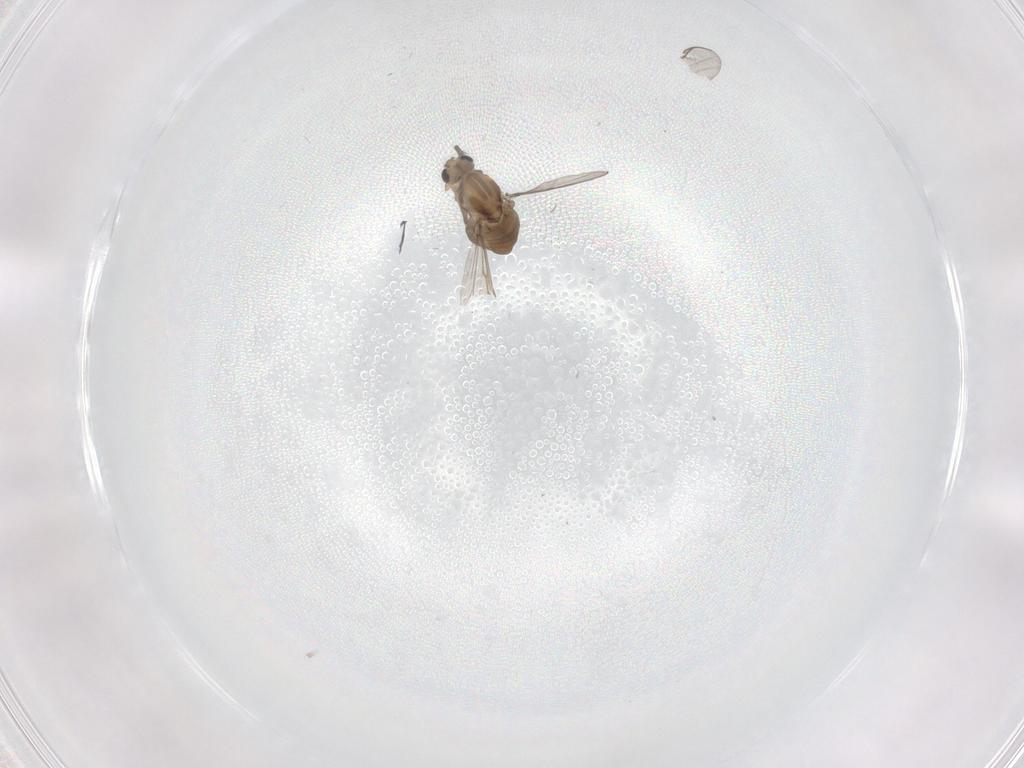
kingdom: Animalia
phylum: Arthropoda
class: Insecta
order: Diptera
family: Chironomidae
